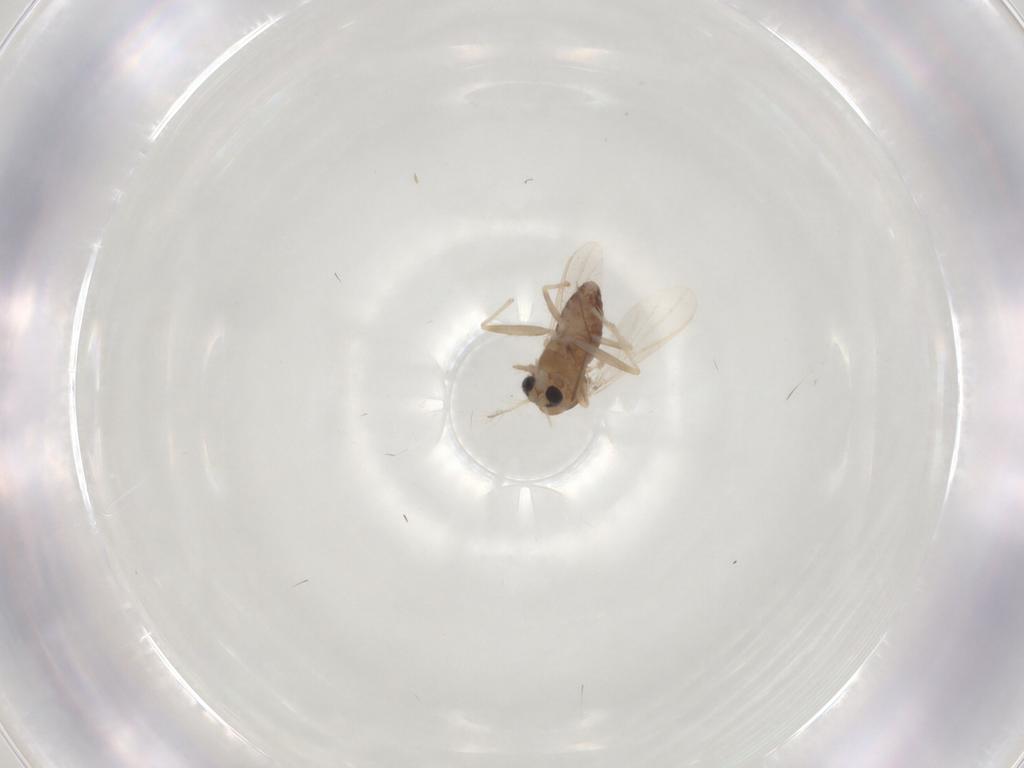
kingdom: Animalia
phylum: Arthropoda
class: Insecta
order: Diptera
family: Chironomidae
